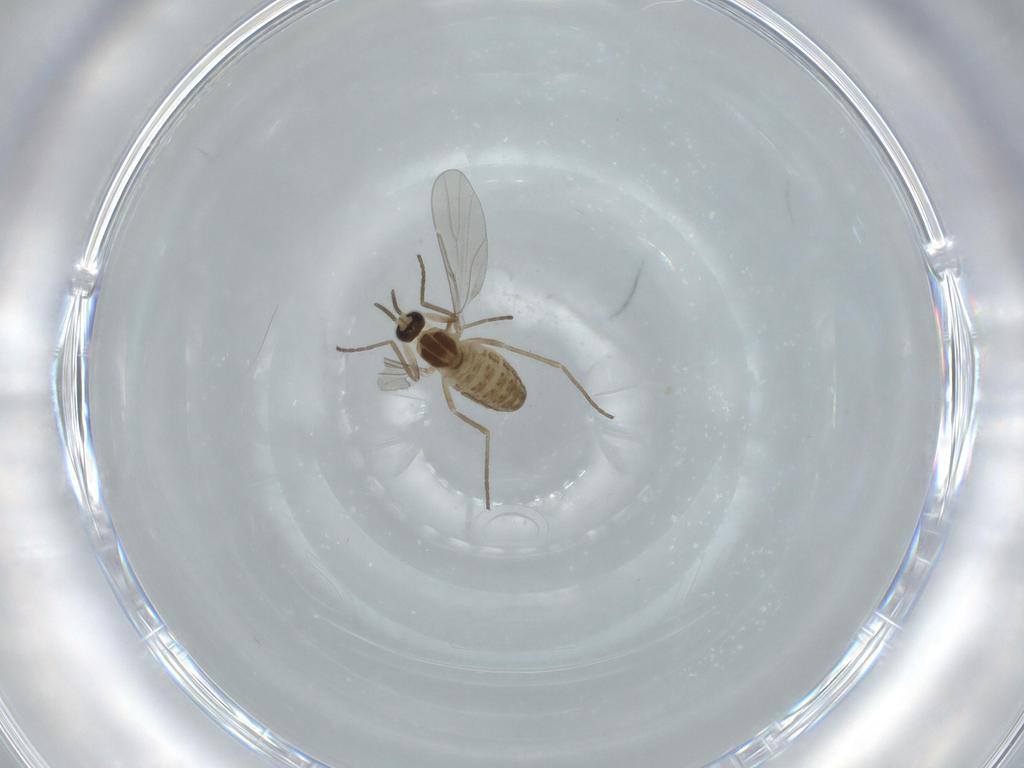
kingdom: Animalia
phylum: Arthropoda
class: Insecta
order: Diptera
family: Cecidomyiidae
